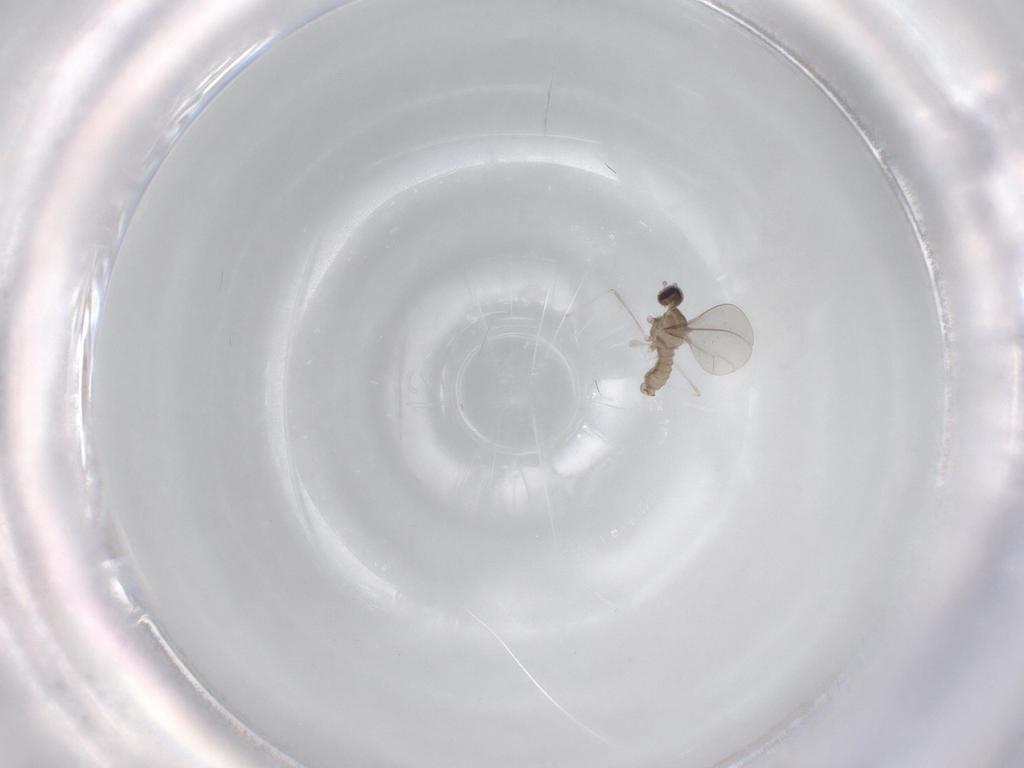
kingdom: Animalia
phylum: Arthropoda
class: Insecta
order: Diptera
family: Cecidomyiidae
